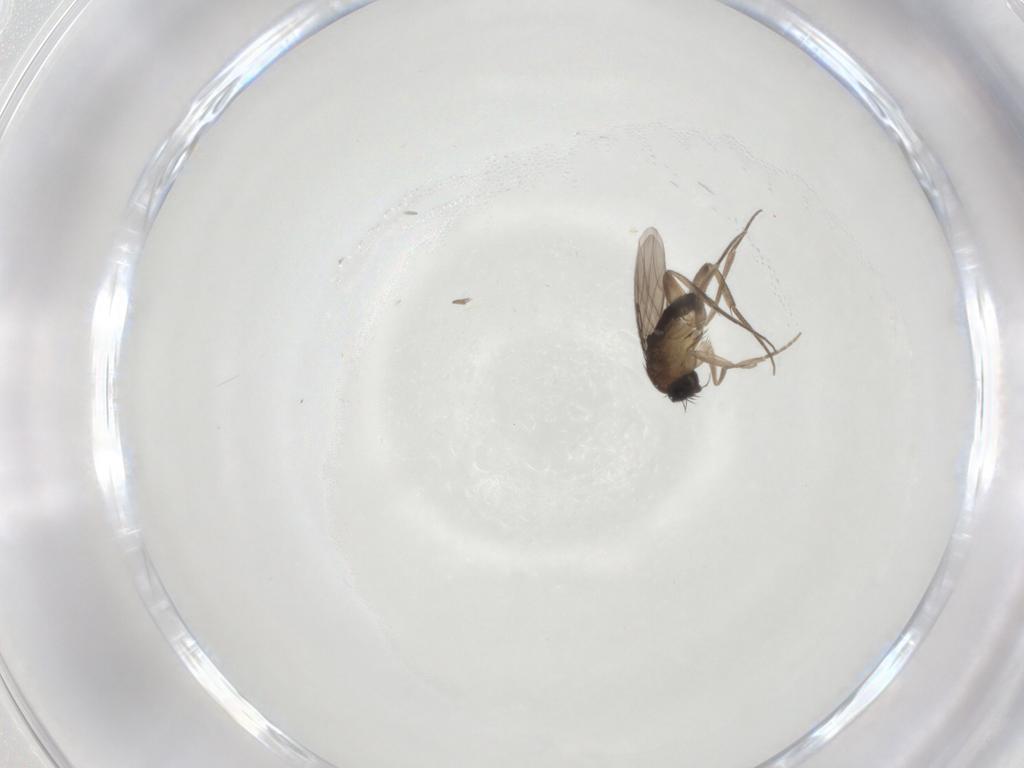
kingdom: Animalia
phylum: Arthropoda
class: Insecta
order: Diptera
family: Phoridae
